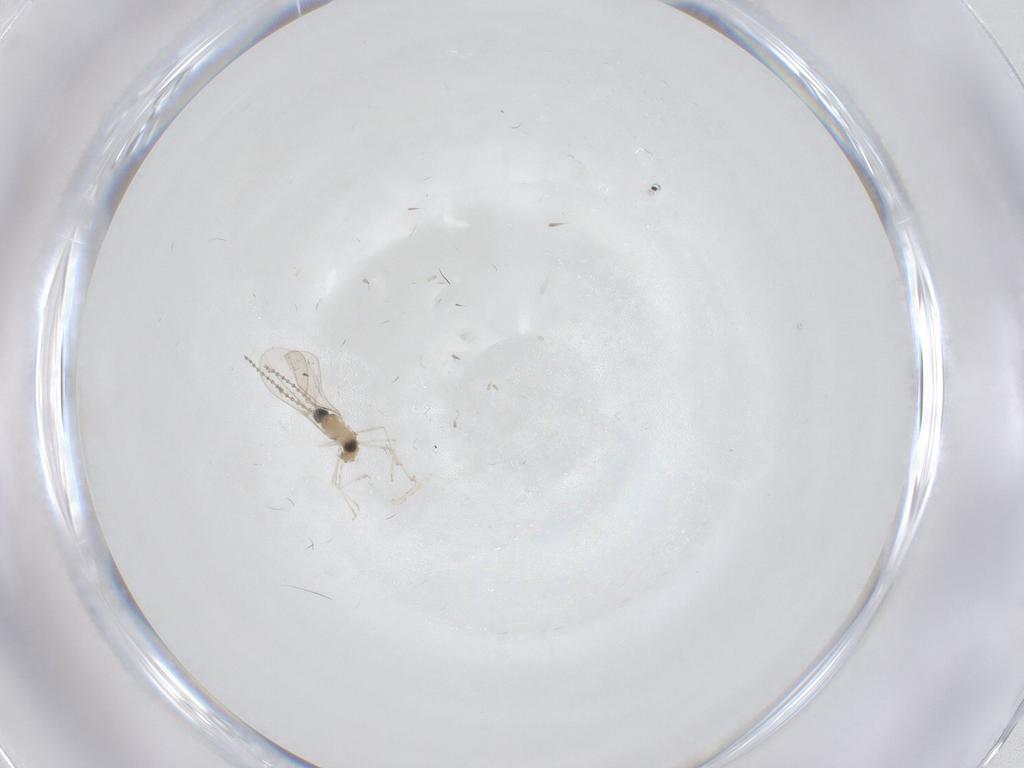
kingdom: Animalia
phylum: Arthropoda
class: Insecta
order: Diptera
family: Cecidomyiidae
